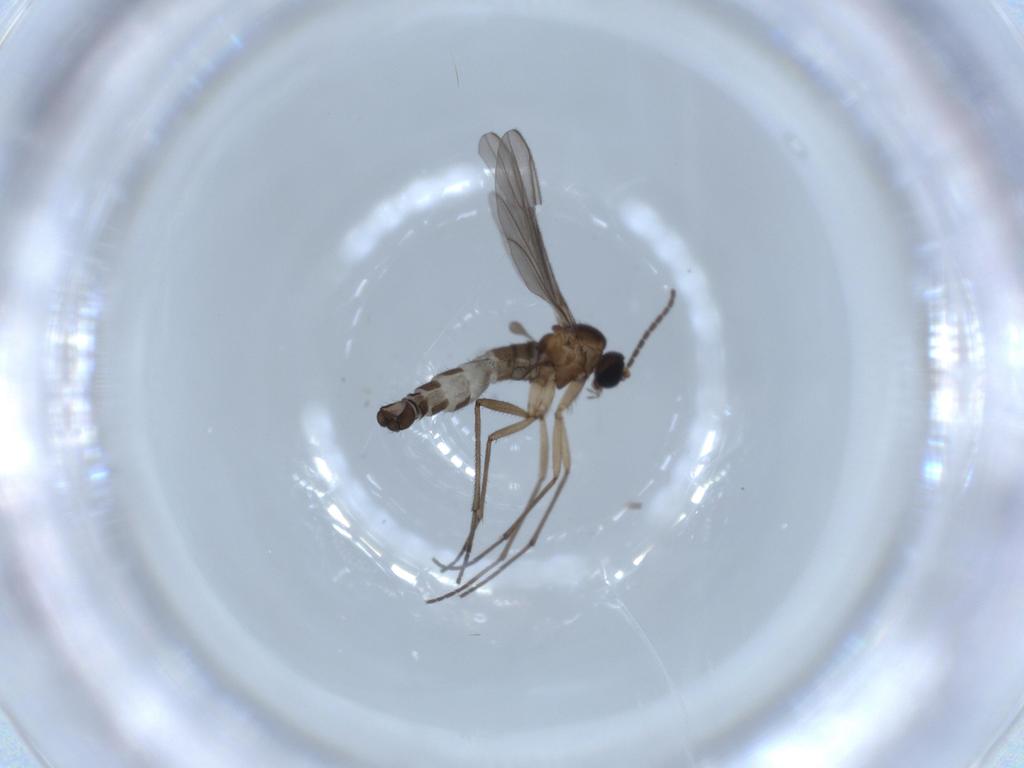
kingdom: Animalia
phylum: Arthropoda
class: Insecta
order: Diptera
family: Sciaridae
